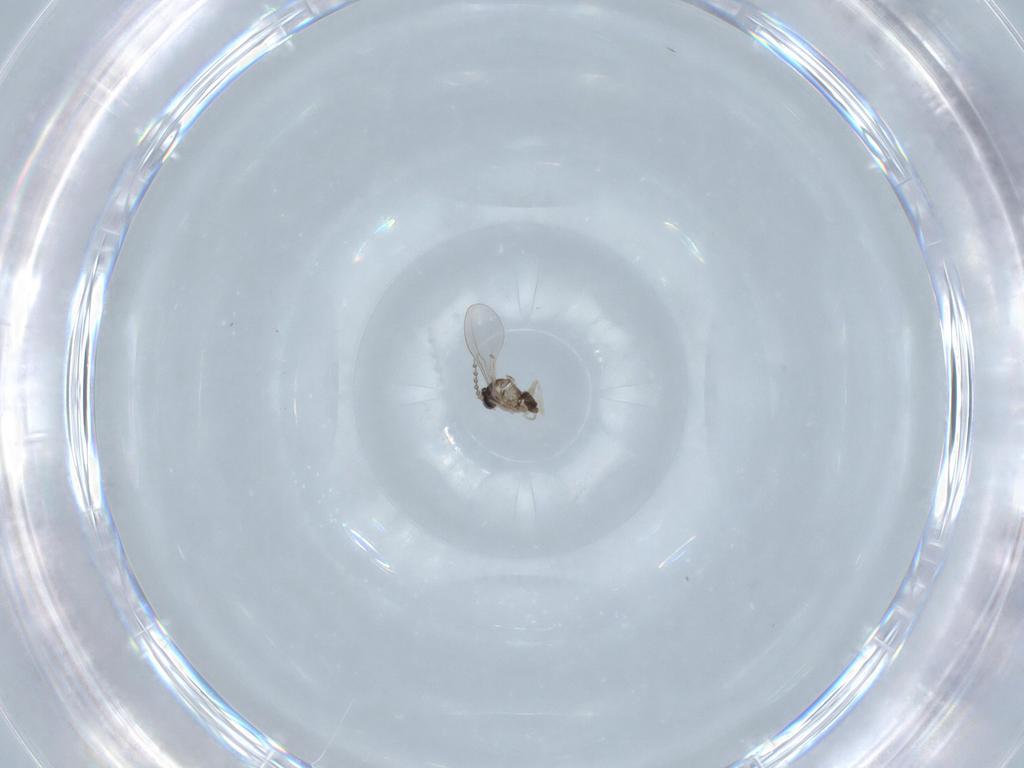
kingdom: Animalia
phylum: Arthropoda
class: Insecta
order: Diptera
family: Cecidomyiidae
